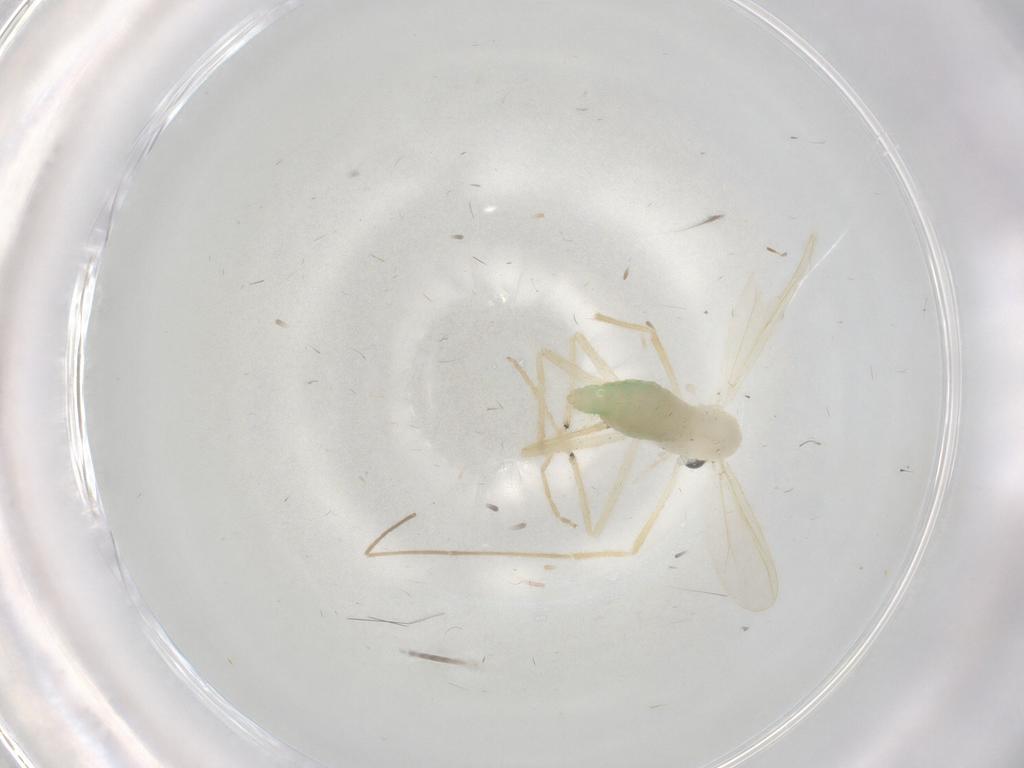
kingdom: Animalia
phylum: Arthropoda
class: Insecta
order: Diptera
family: Chironomidae
